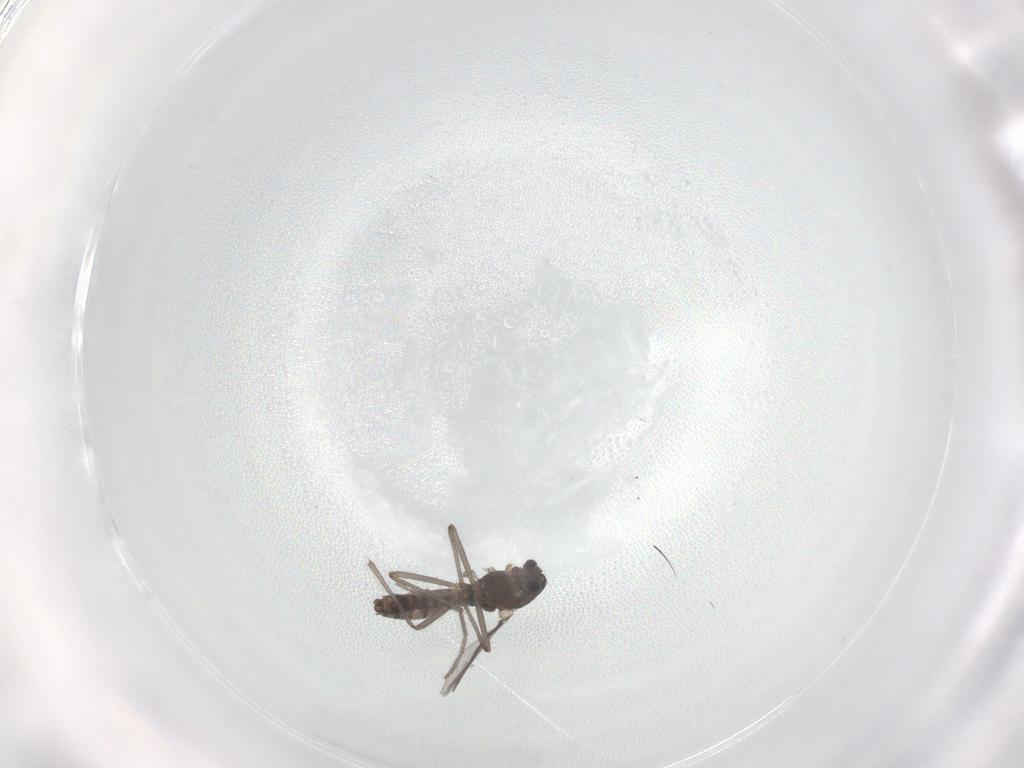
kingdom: Animalia
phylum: Arthropoda
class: Insecta
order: Diptera
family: Chironomidae
